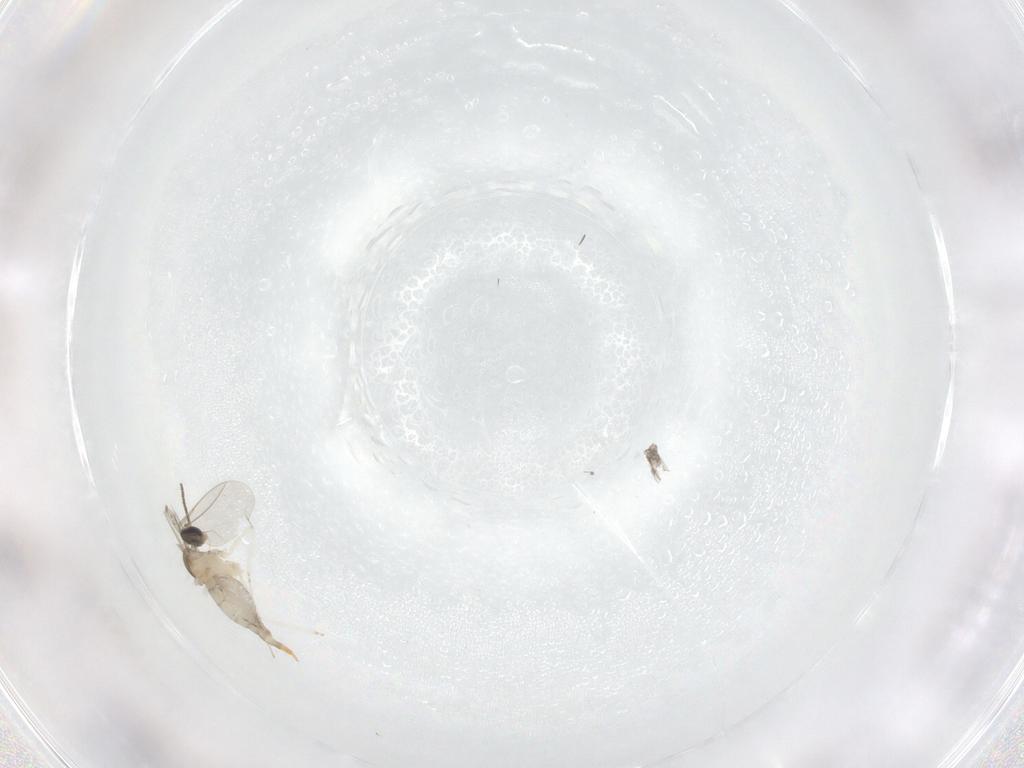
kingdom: Animalia
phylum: Arthropoda
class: Insecta
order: Diptera
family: Cecidomyiidae
